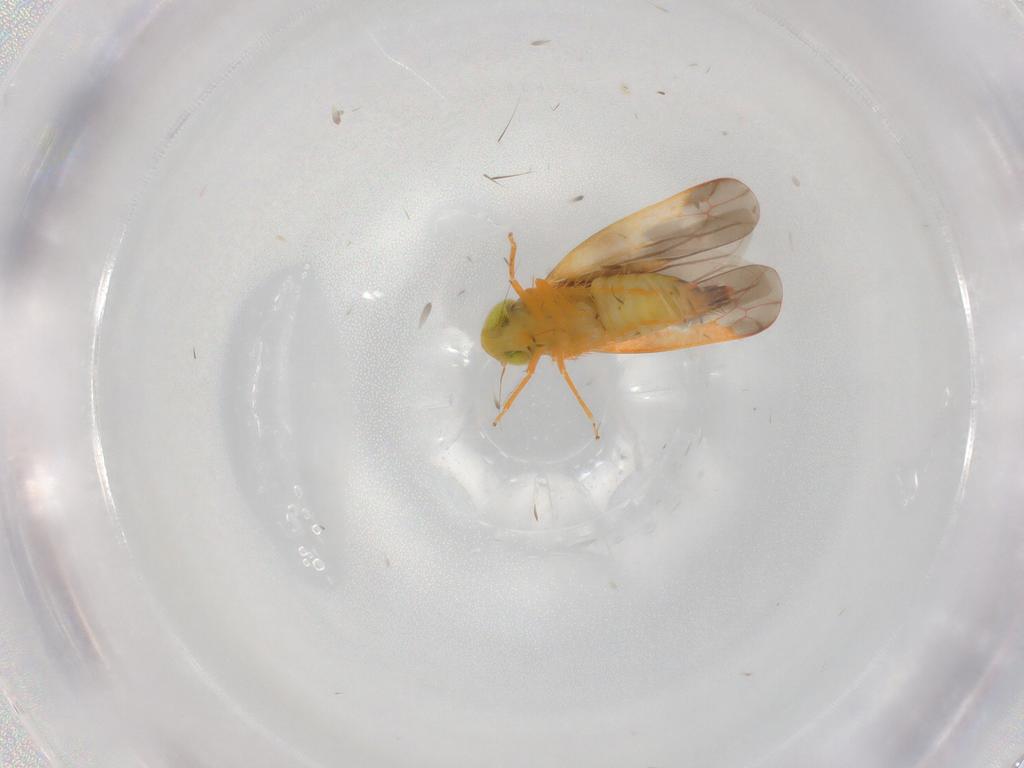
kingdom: Animalia
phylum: Arthropoda
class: Insecta
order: Hemiptera
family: Cicadellidae
